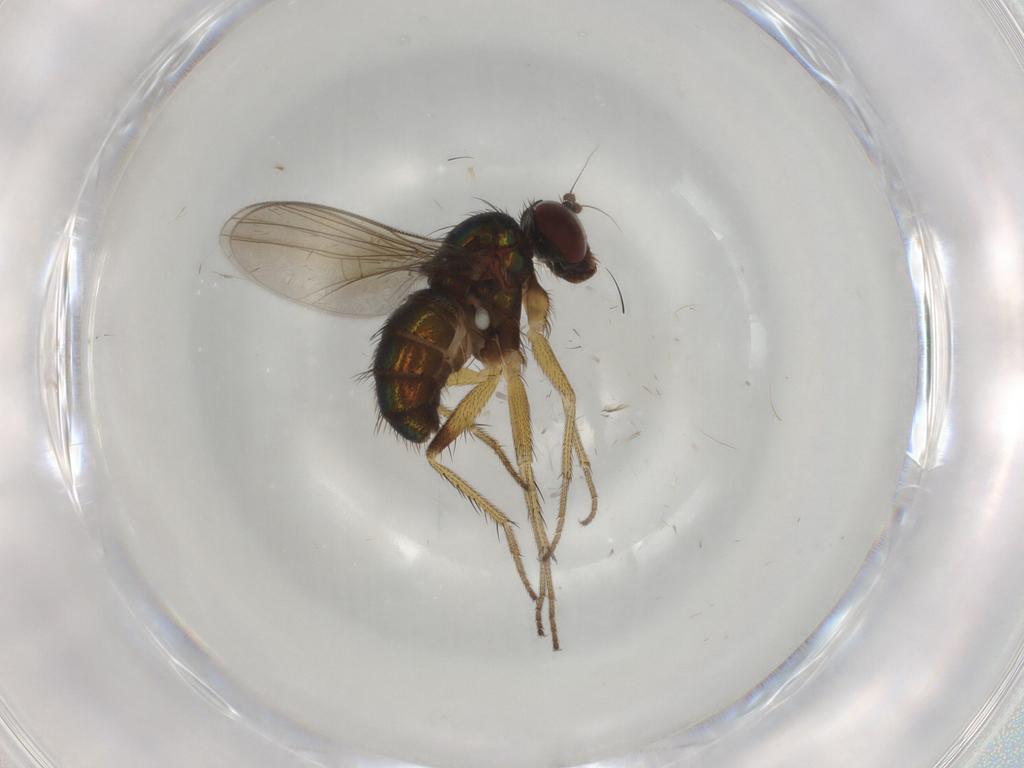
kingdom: Animalia
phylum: Arthropoda
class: Insecta
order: Diptera
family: Dolichopodidae
